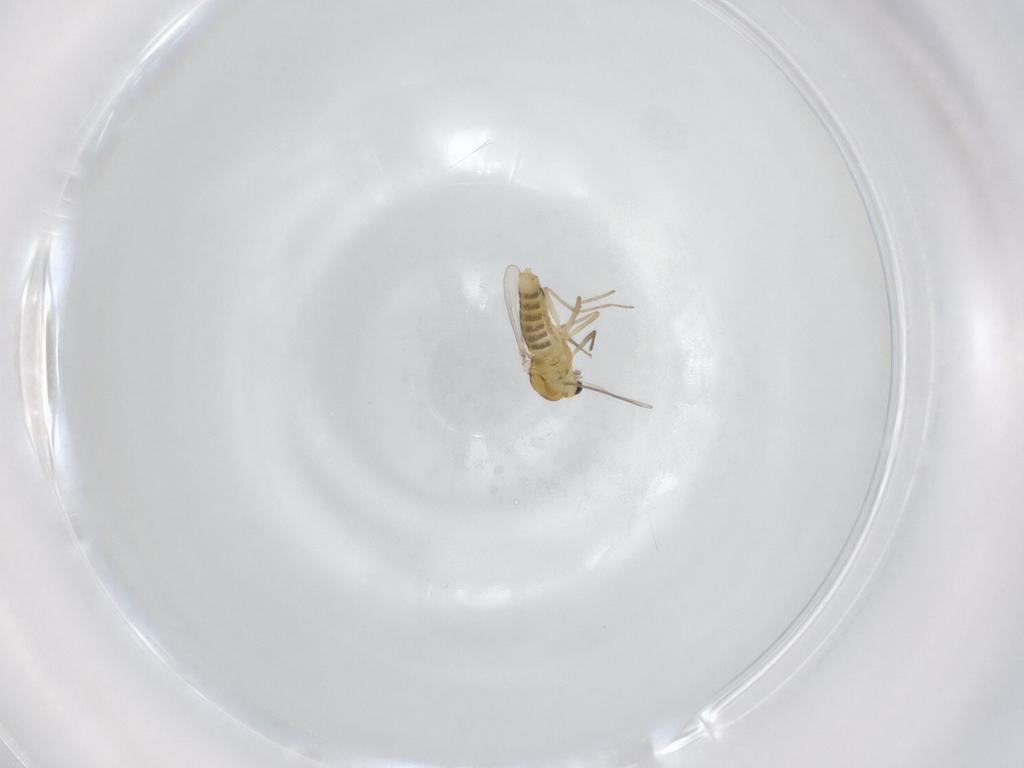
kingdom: Animalia
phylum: Arthropoda
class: Insecta
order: Diptera
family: Chironomidae
